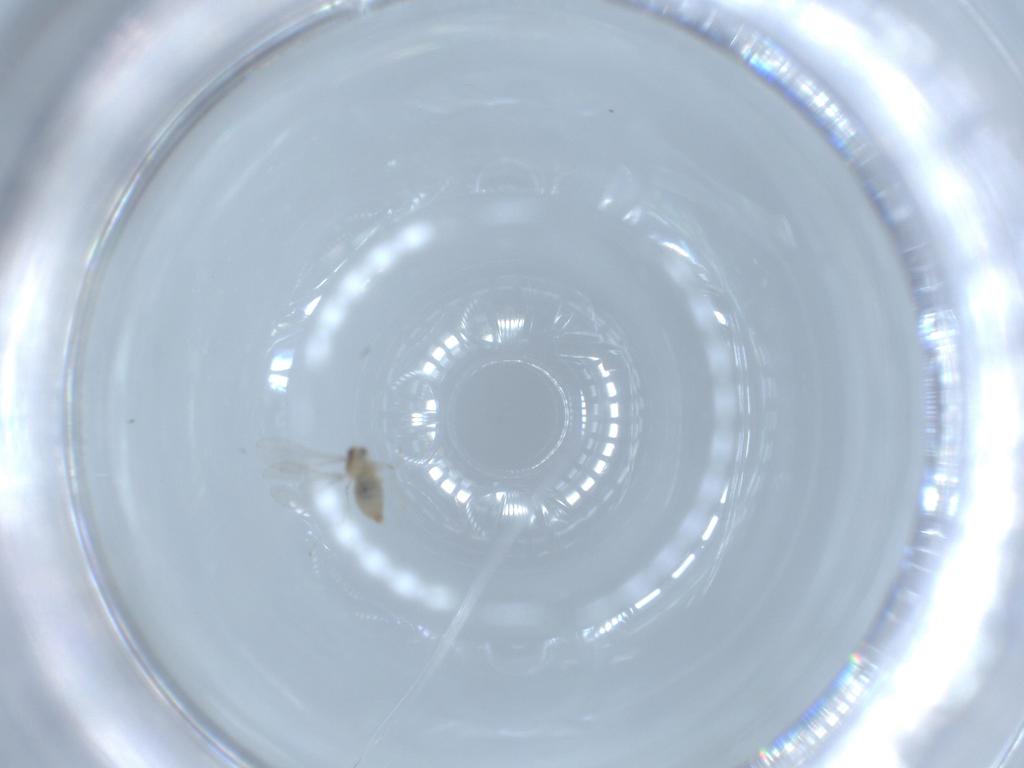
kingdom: Animalia
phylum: Arthropoda
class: Insecta
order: Diptera
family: Cecidomyiidae
